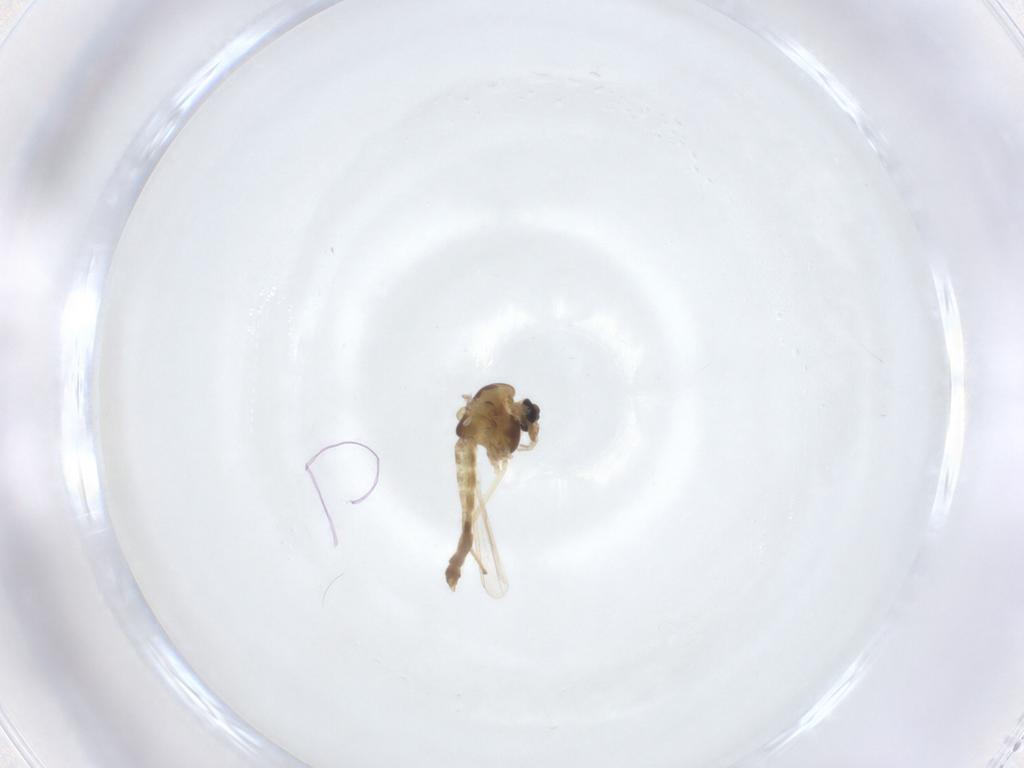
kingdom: Animalia
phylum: Arthropoda
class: Insecta
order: Diptera
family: Chironomidae
